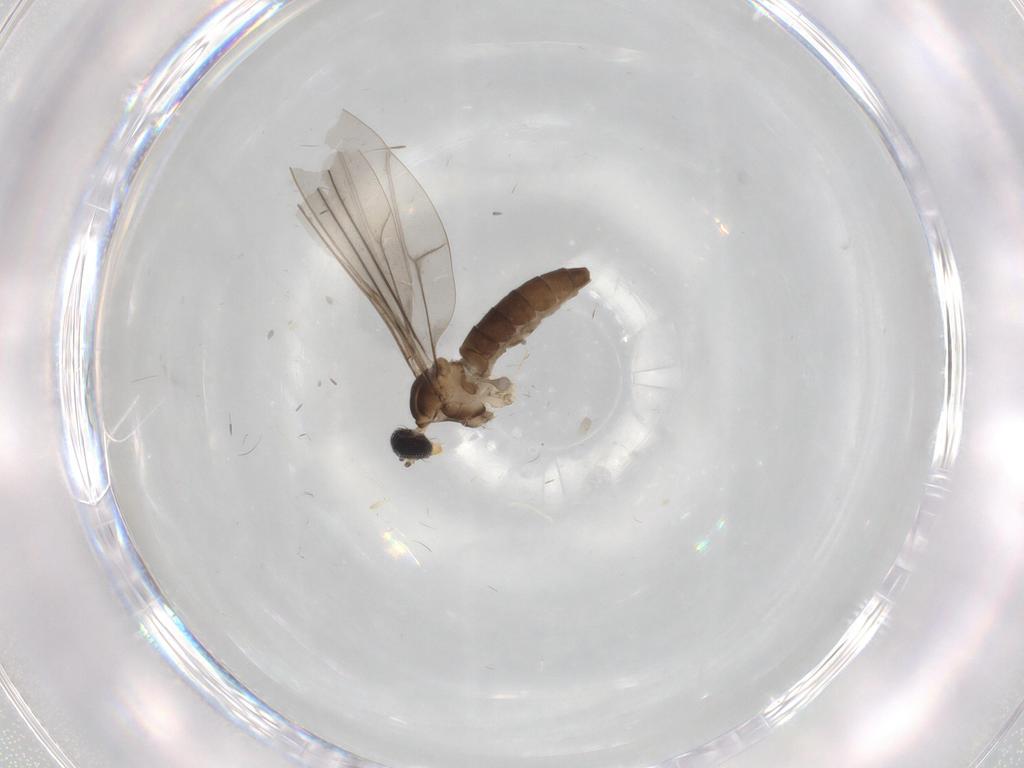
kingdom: Animalia
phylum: Arthropoda
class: Insecta
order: Diptera
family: Cecidomyiidae
